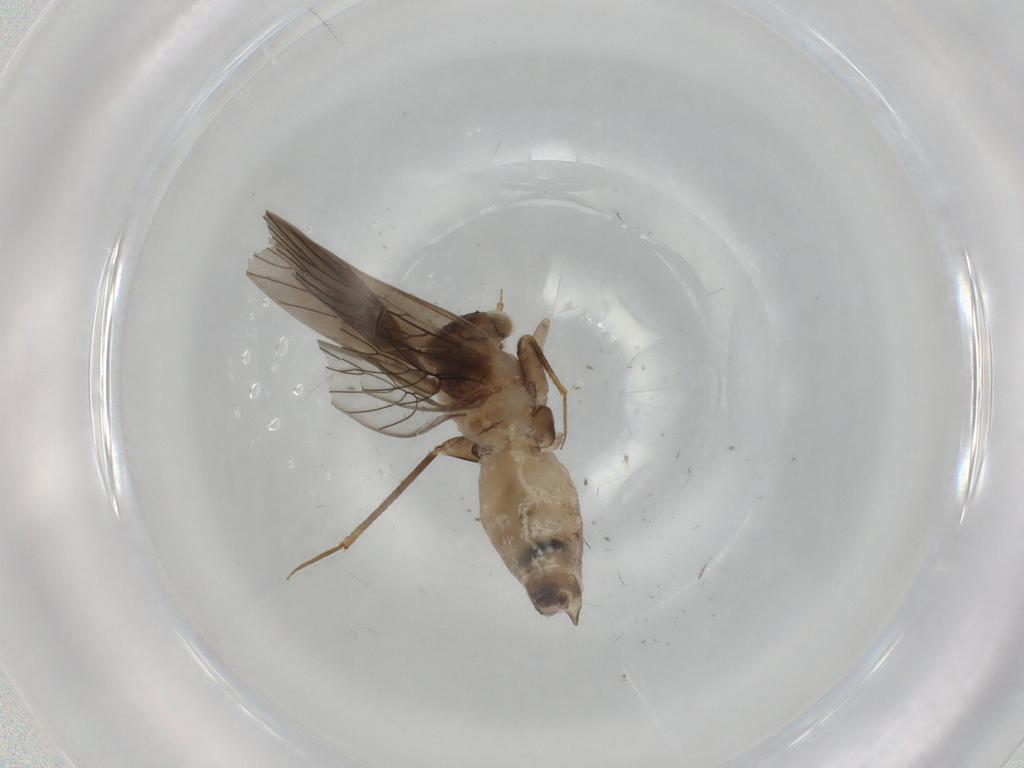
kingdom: Animalia
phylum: Arthropoda
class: Insecta
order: Psocodea
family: Lepidopsocidae
